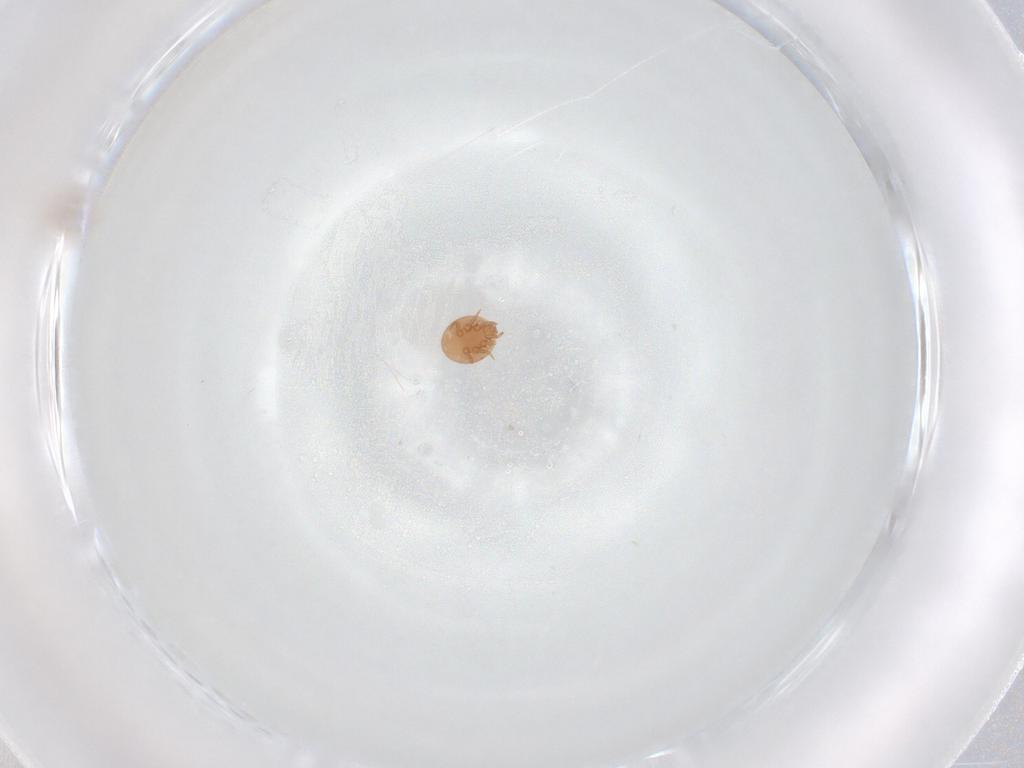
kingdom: Animalia
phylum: Arthropoda
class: Arachnida
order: Mesostigmata
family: Trematuridae
